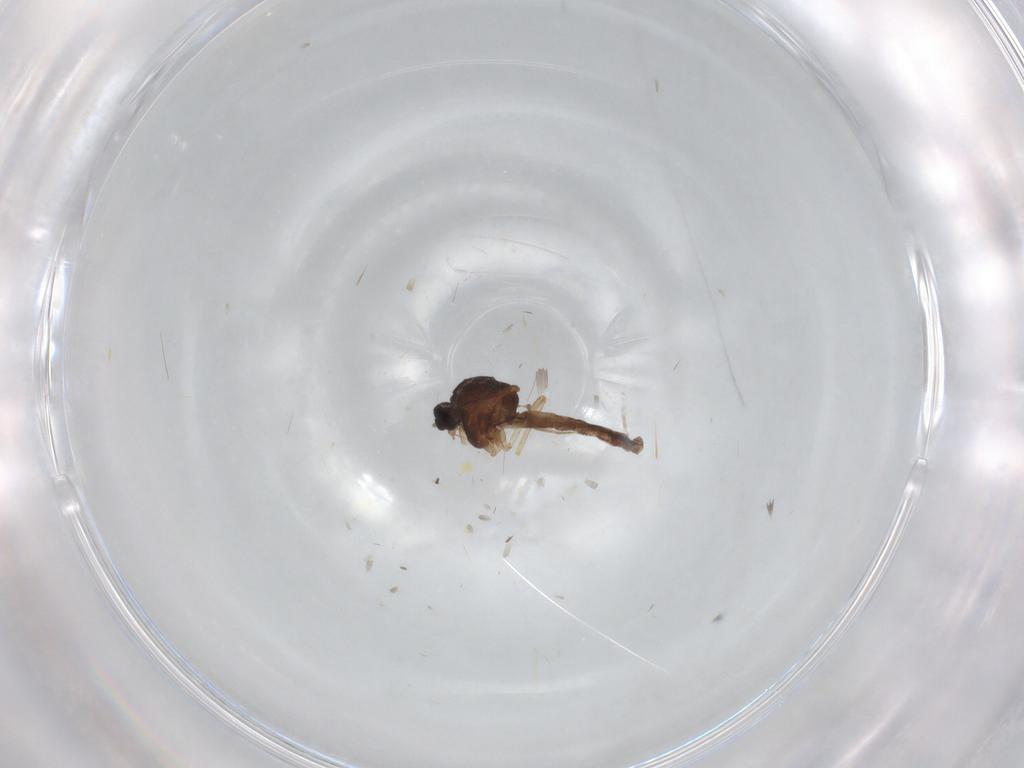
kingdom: Animalia
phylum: Arthropoda
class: Insecta
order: Diptera
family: Ceratopogonidae
